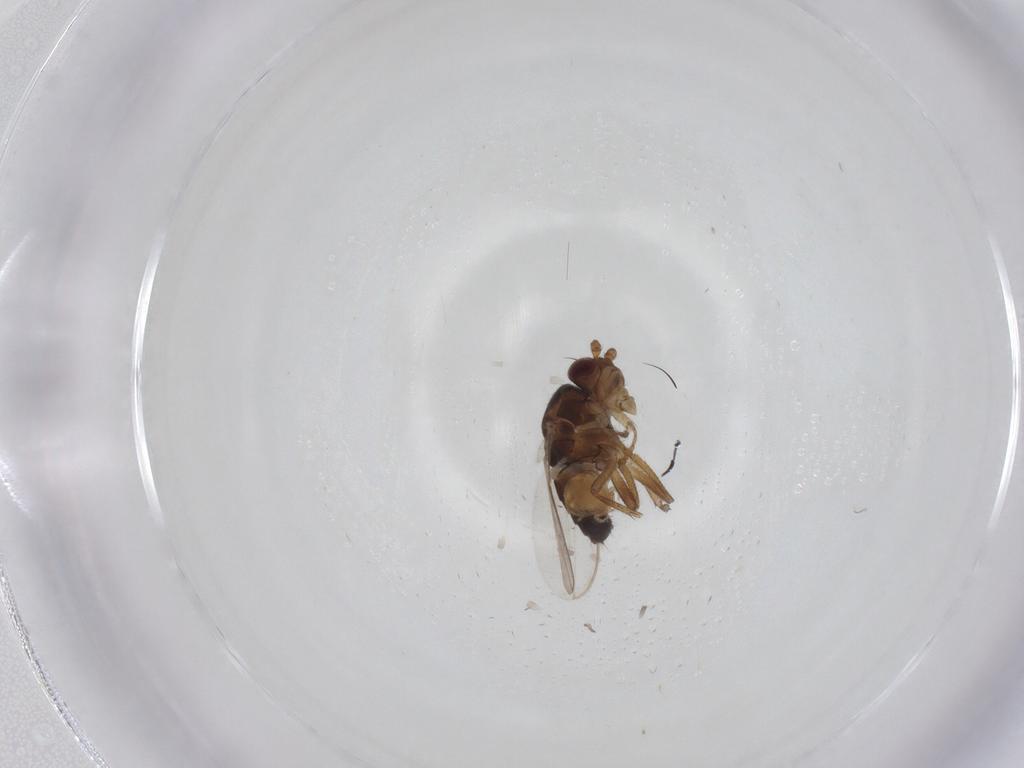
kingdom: Animalia
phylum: Arthropoda
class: Insecta
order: Diptera
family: Sphaeroceridae
